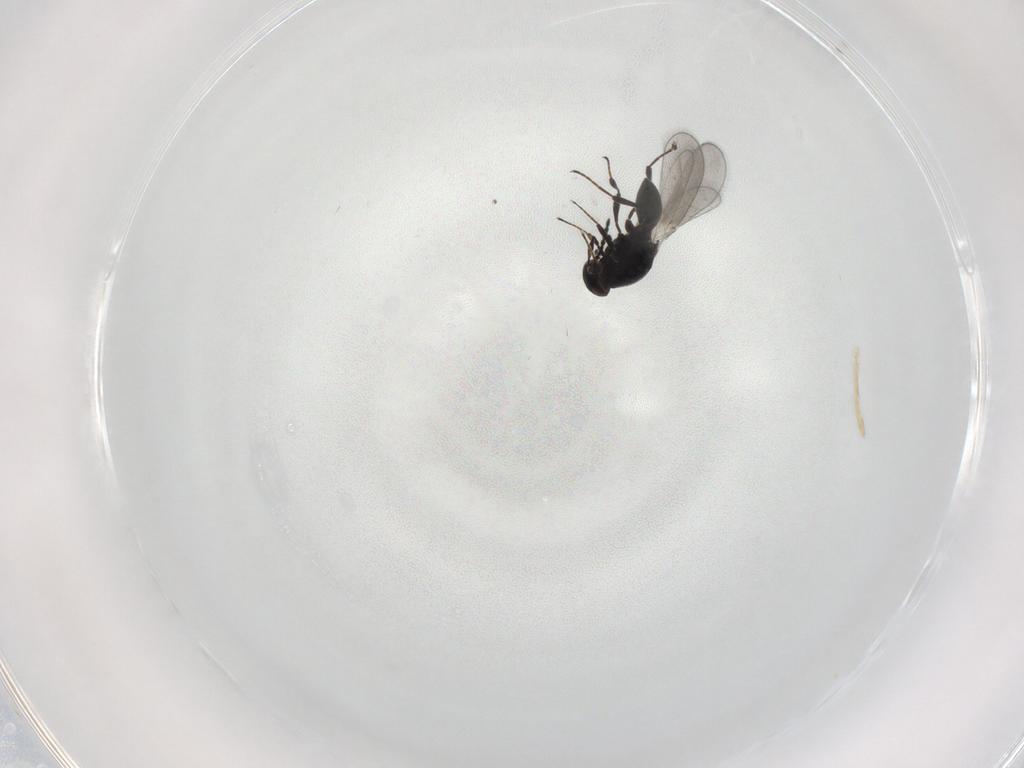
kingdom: Animalia
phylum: Arthropoda
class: Insecta
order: Hymenoptera
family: Platygastridae
